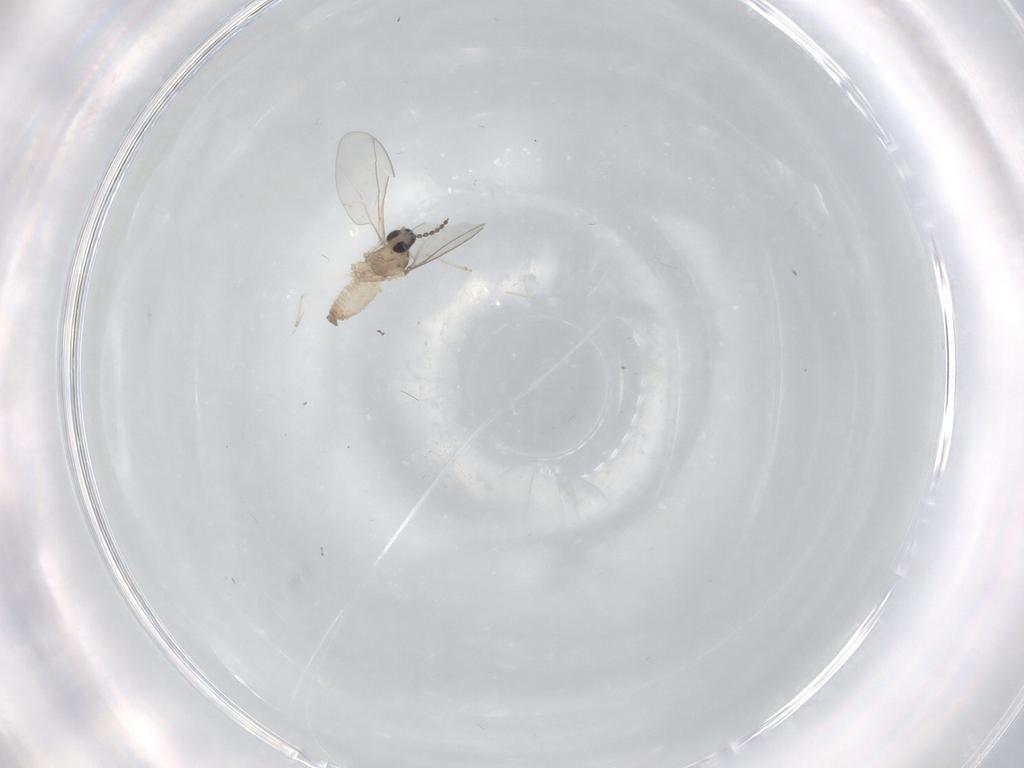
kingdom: Animalia
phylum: Arthropoda
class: Insecta
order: Diptera
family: Cecidomyiidae
